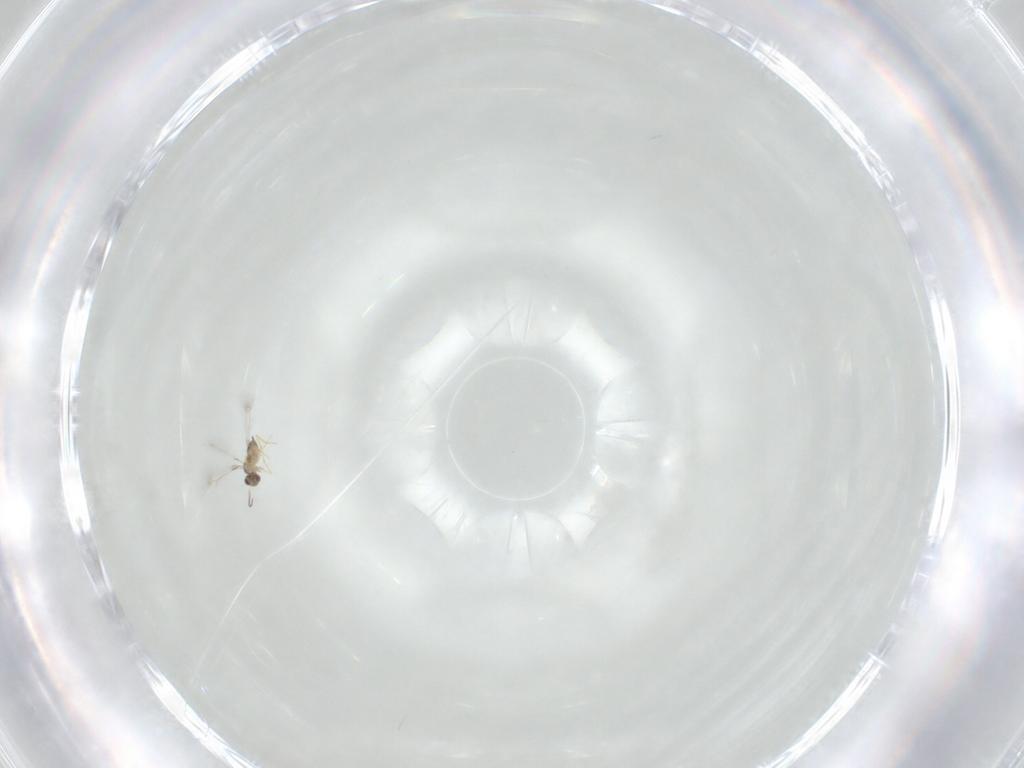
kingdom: Animalia
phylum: Arthropoda
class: Insecta
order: Hymenoptera
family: Mymaridae
